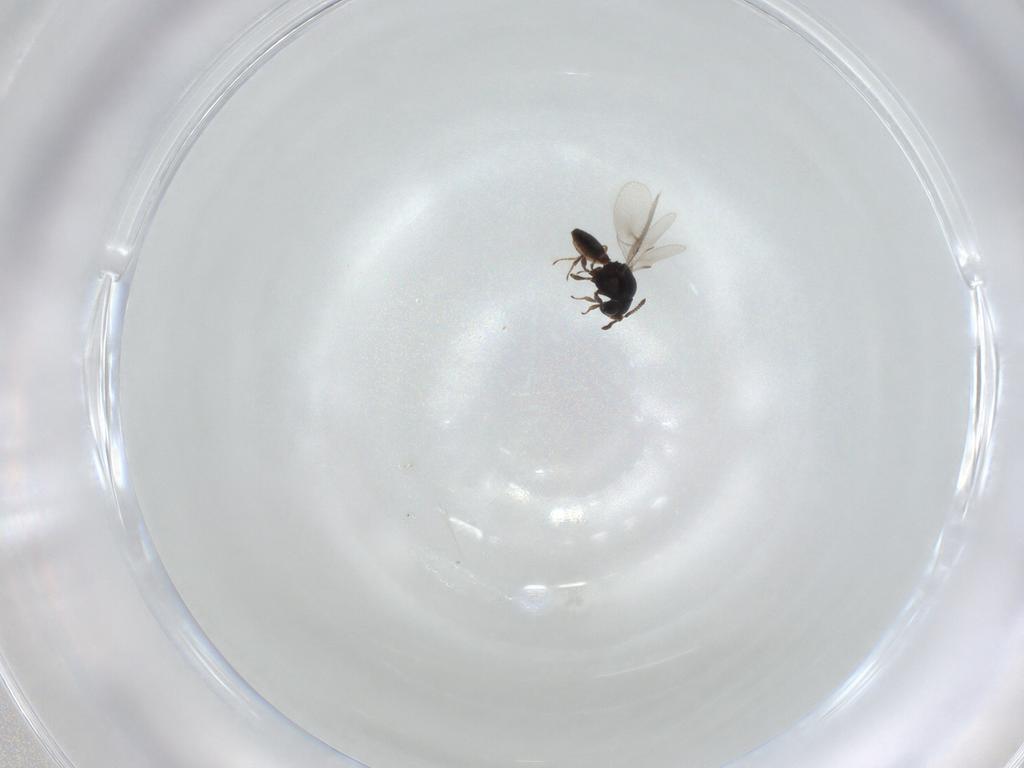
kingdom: Animalia
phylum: Arthropoda
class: Insecta
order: Hymenoptera
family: Scelionidae
